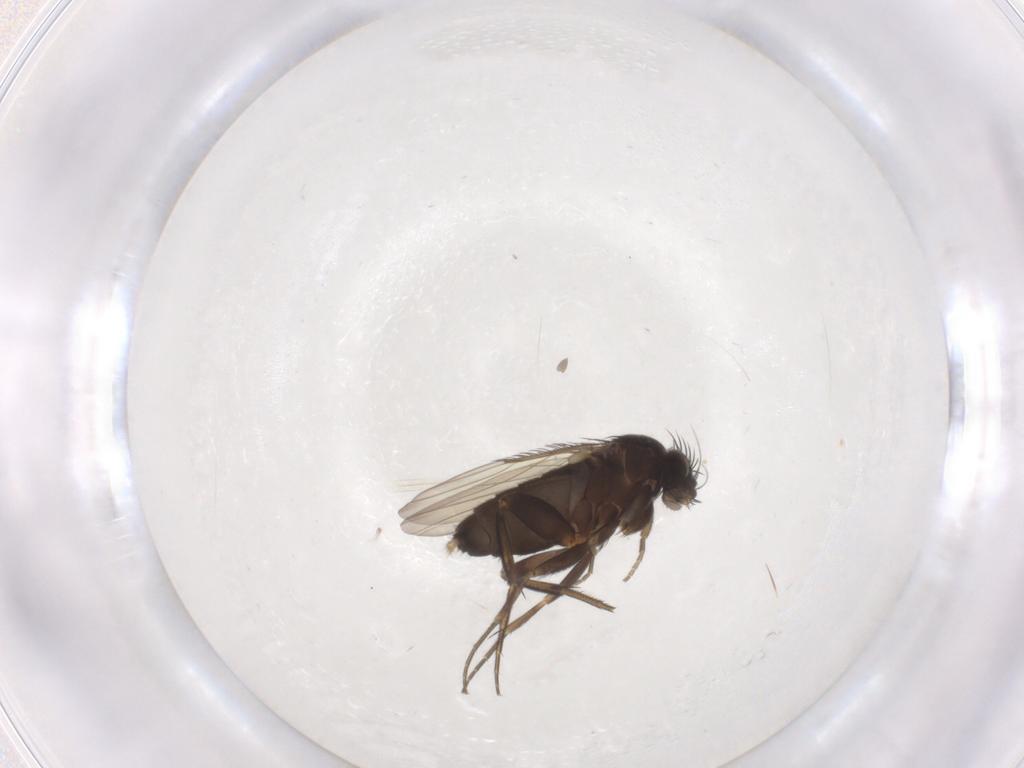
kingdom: Animalia
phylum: Arthropoda
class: Insecta
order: Diptera
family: Phoridae
